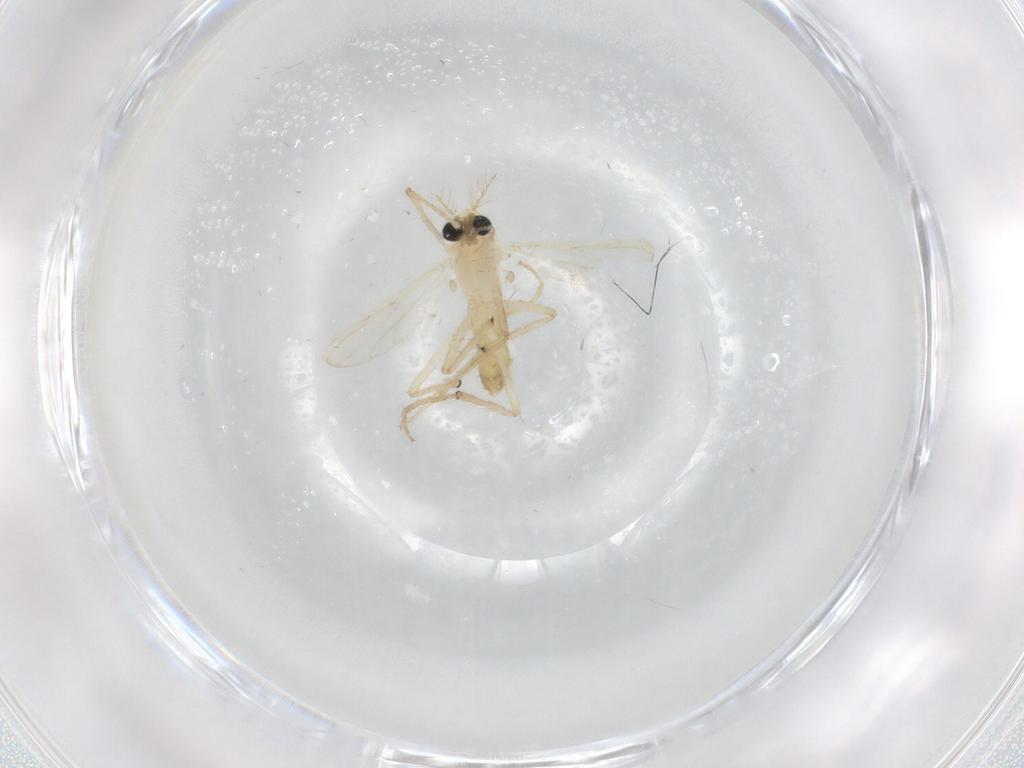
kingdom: Animalia
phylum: Arthropoda
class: Insecta
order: Diptera
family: Chironomidae
